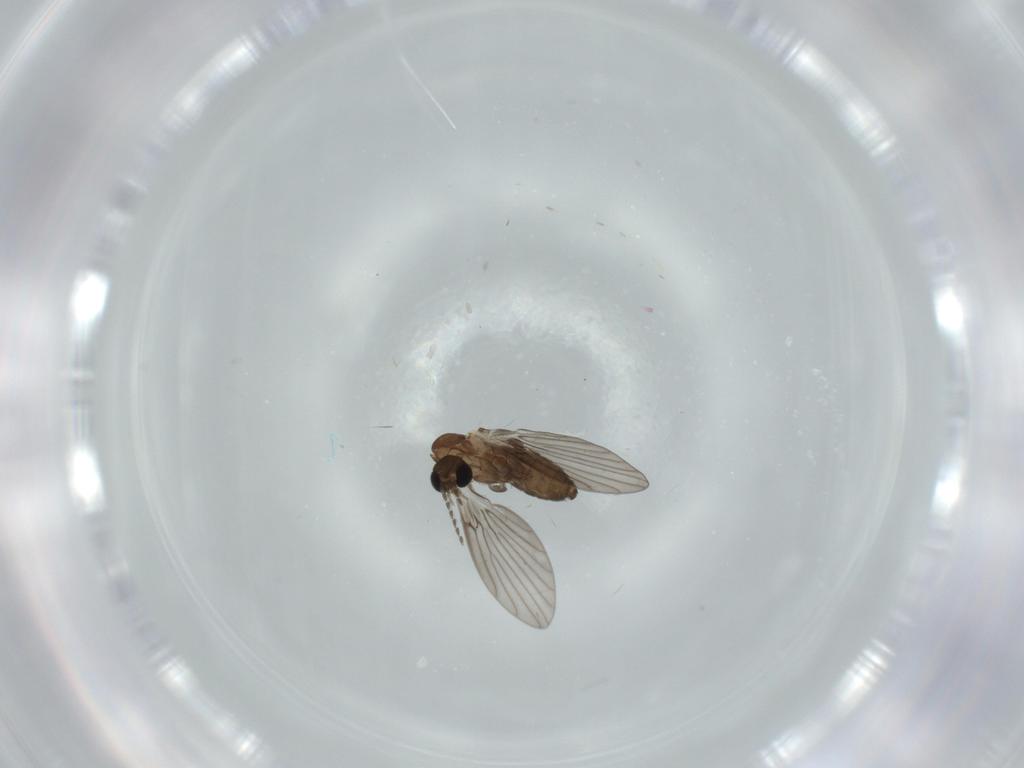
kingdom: Animalia
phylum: Arthropoda
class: Insecta
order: Diptera
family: Psychodidae
